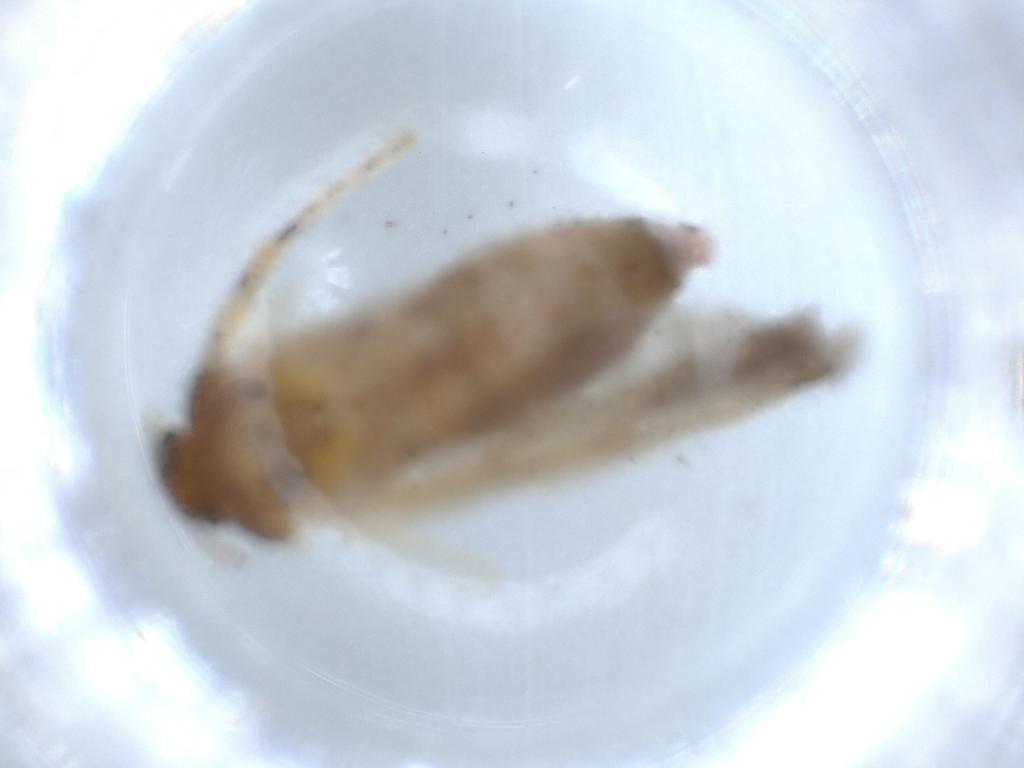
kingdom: Animalia
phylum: Arthropoda
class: Insecta
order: Lepidoptera
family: Gelechiidae
